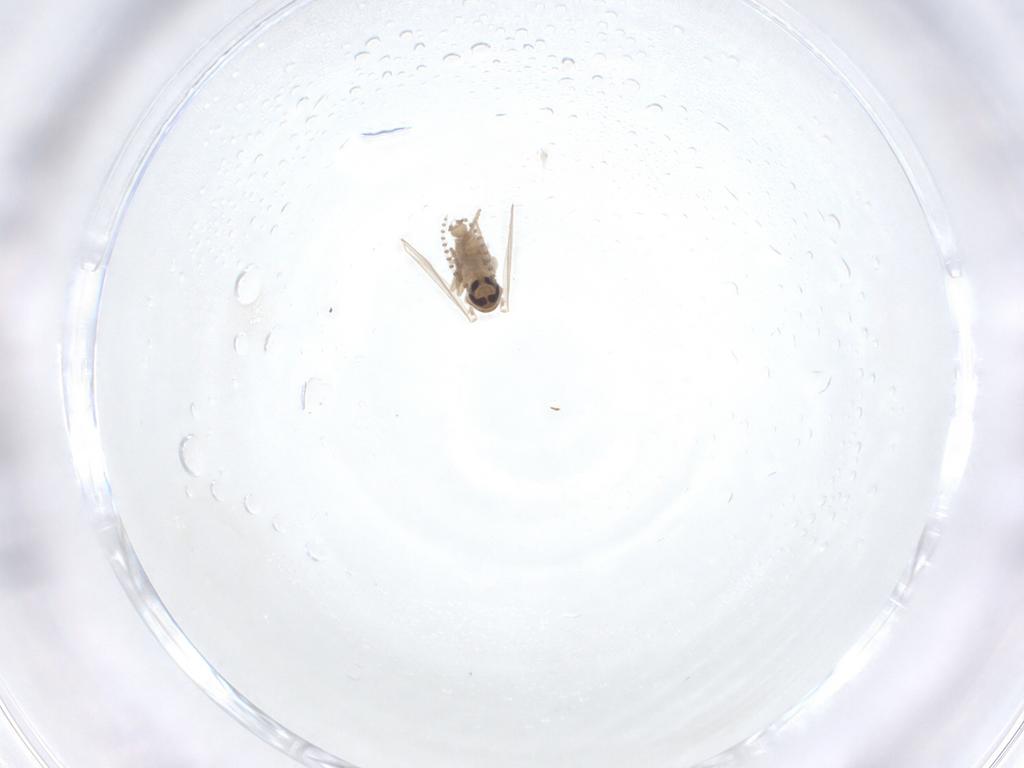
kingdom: Animalia
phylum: Arthropoda
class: Insecta
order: Diptera
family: Psychodidae
